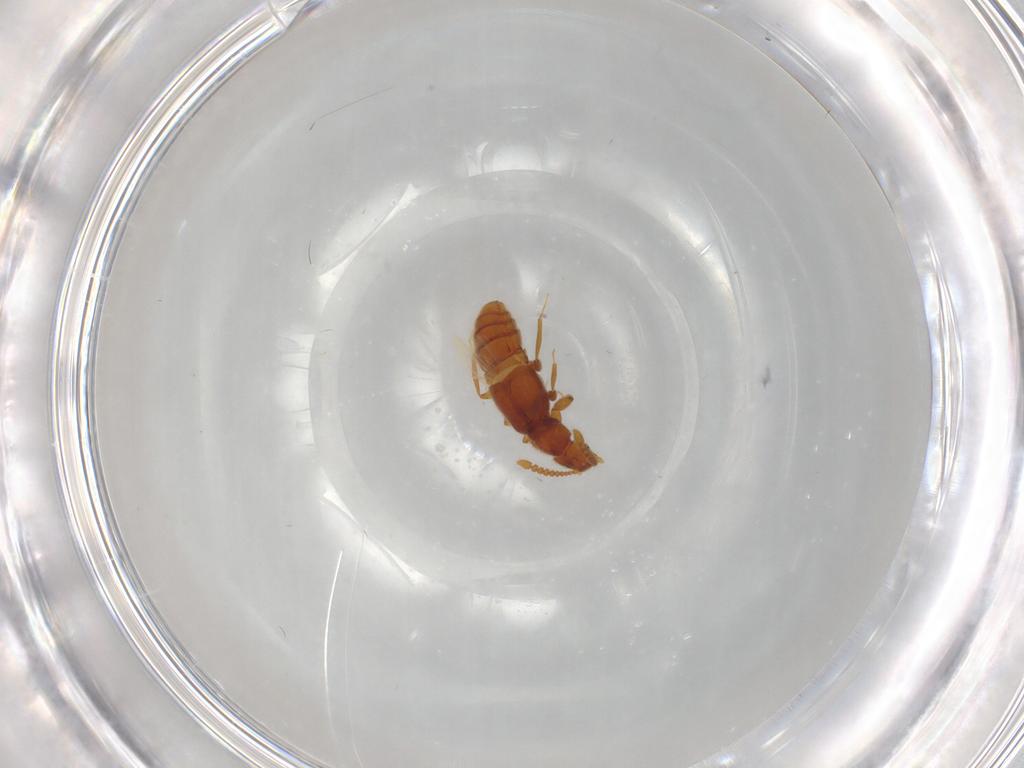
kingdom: Animalia
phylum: Arthropoda
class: Insecta
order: Coleoptera
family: Staphylinidae
